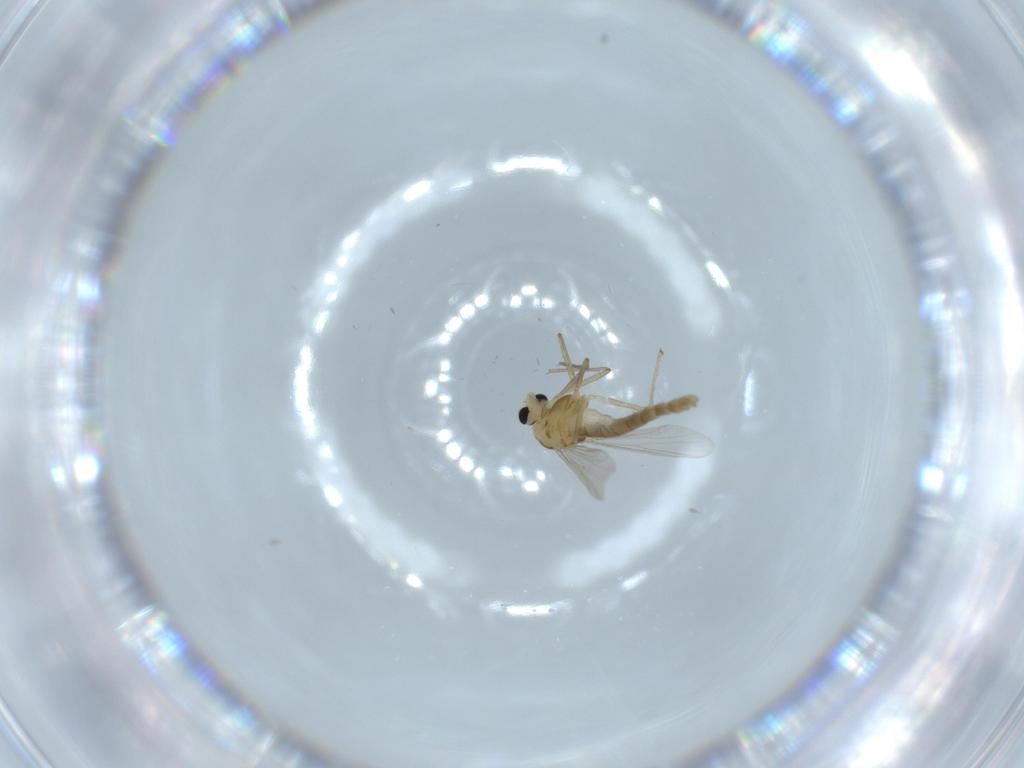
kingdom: Animalia
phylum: Arthropoda
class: Insecta
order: Diptera
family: Chironomidae
